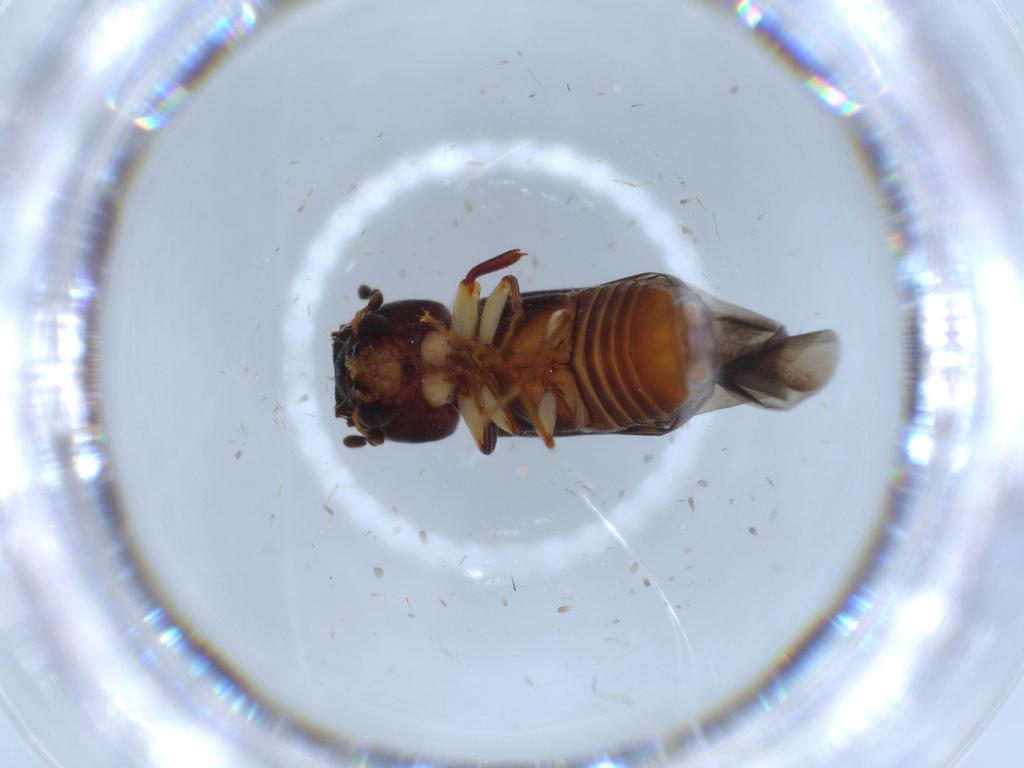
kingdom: Animalia
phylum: Arthropoda
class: Insecta
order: Coleoptera
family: Bostrichidae
